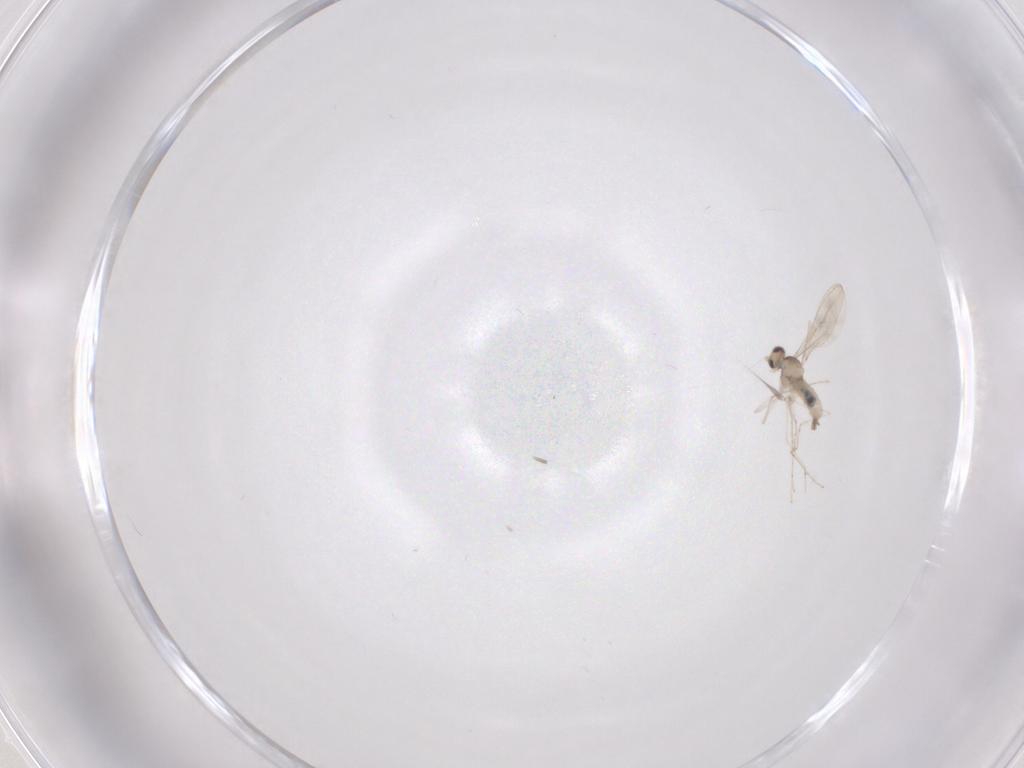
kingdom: Animalia
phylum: Arthropoda
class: Insecta
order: Diptera
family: Cecidomyiidae
